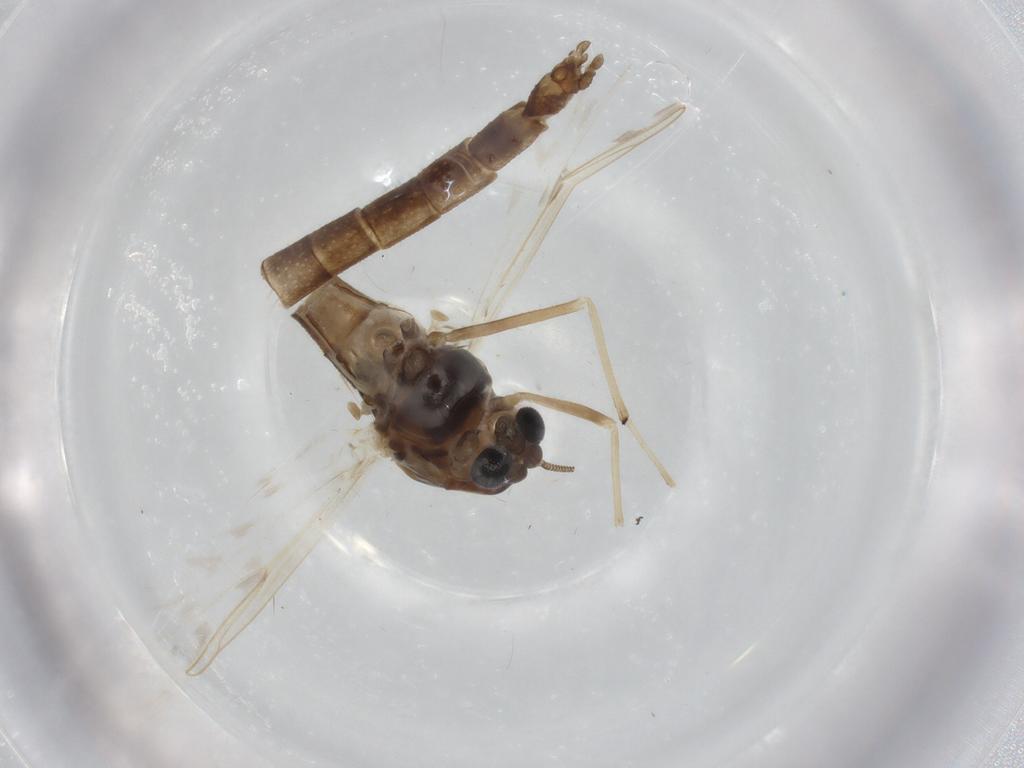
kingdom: Animalia
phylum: Arthropoda
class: Insecta
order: Diptera
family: Chironomidae
